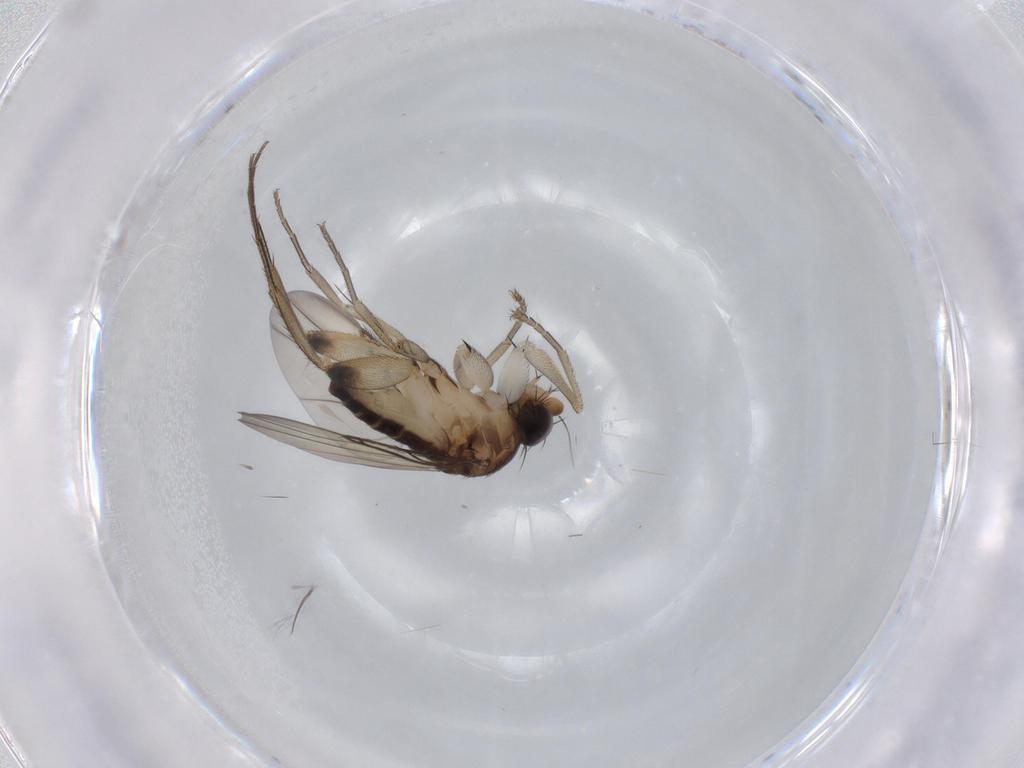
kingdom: Animalia
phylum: Arthropoda
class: Insecta
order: Diptera
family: Phoridae
